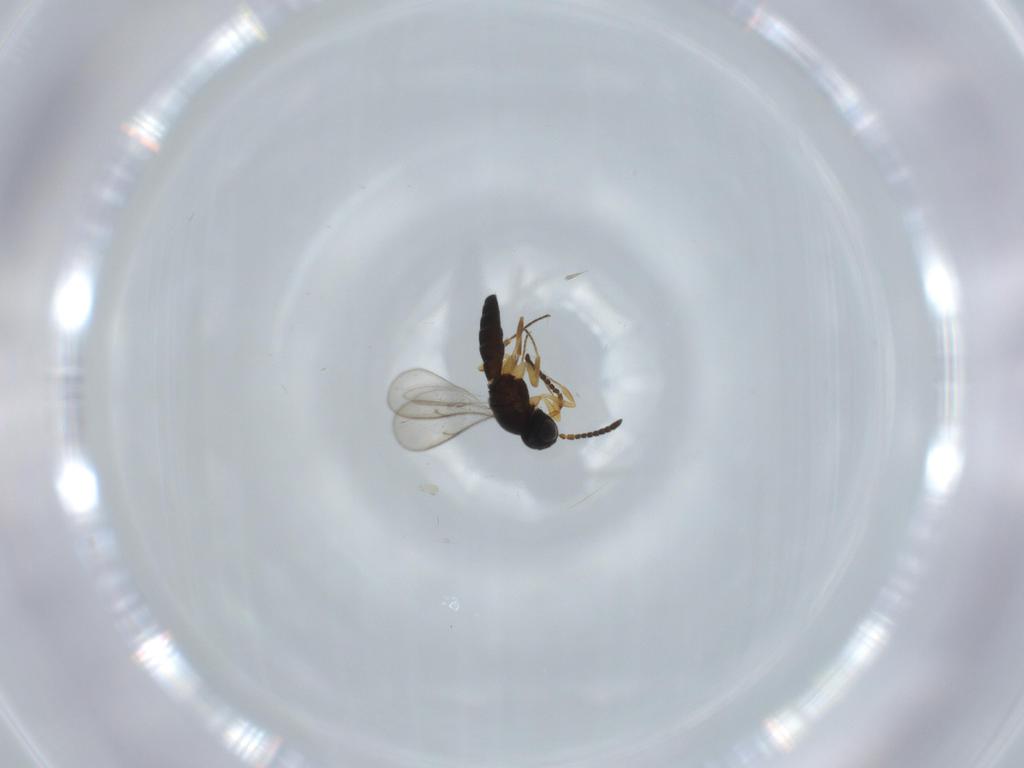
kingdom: Animalia
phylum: Arthropoda
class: Insecta
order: Hymenoptera
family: Scelionidae
